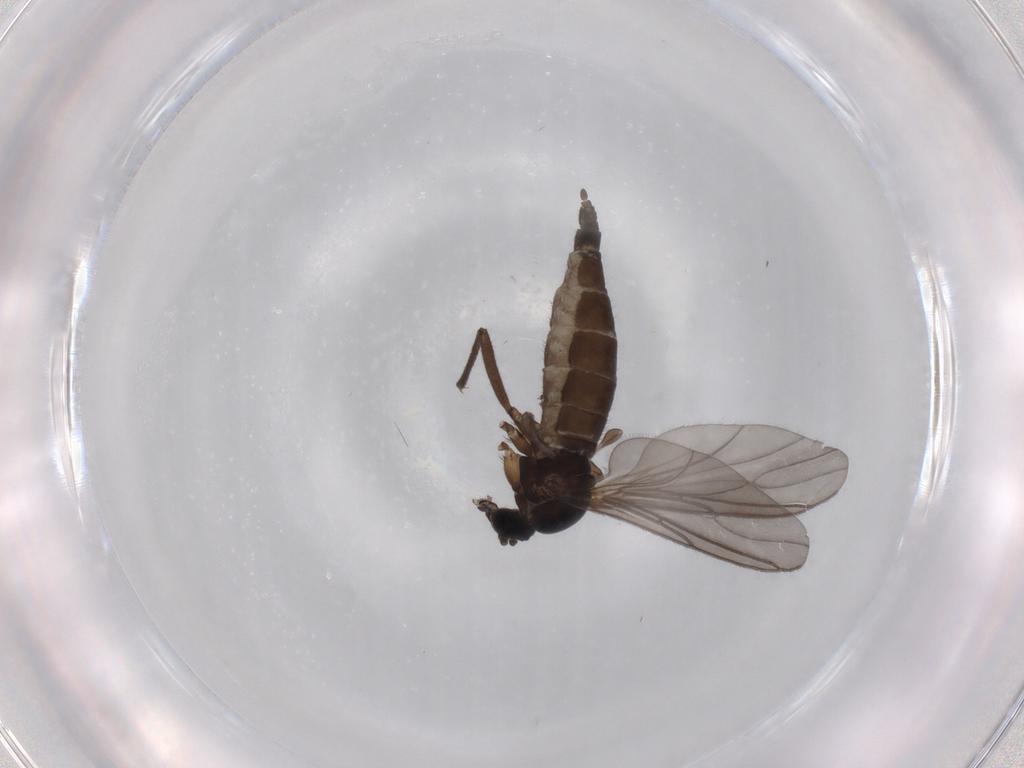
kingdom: Animalia
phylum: Arthropoda
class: Insecta
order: Diptera
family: Sciaridae
